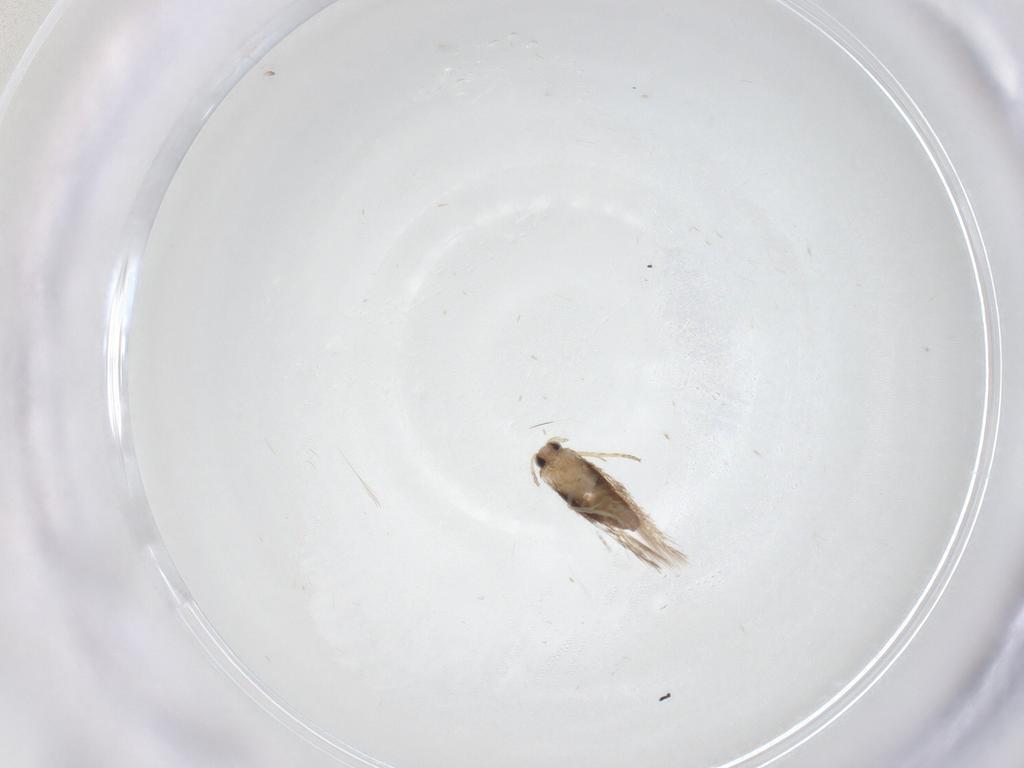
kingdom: Animalia
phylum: Arthropoda
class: Insecta
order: Lepidoptera
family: Nepticulidae
